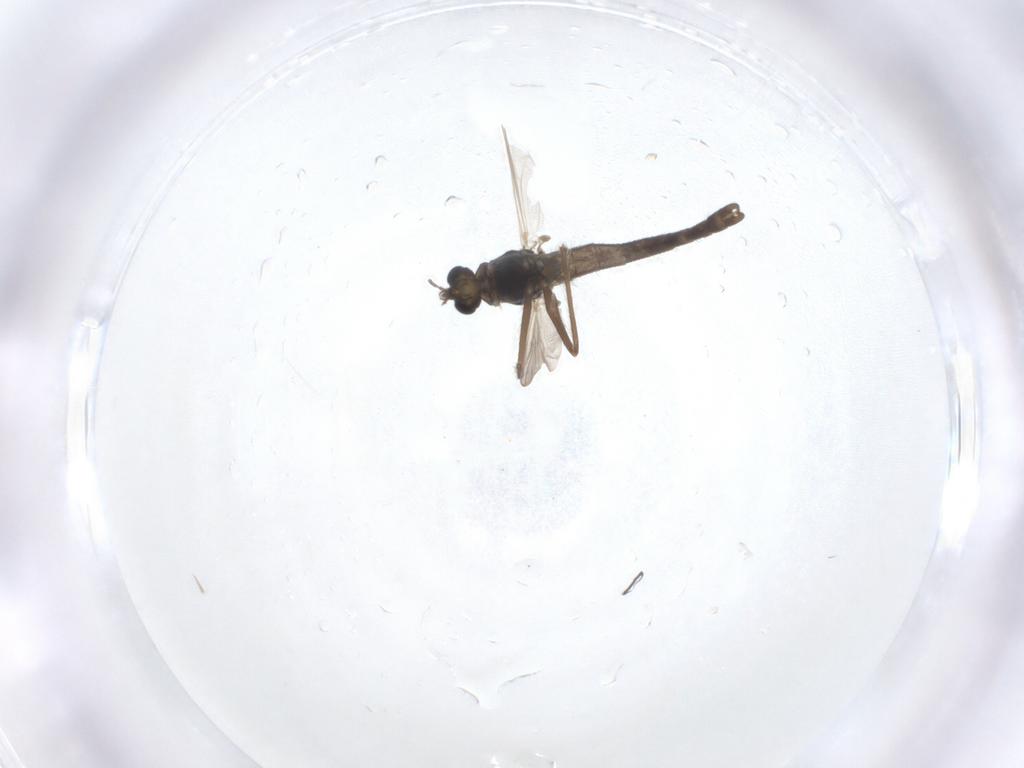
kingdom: Animalia
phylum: Arthropoda
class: Insecta
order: Diptera
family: Chironomidae
